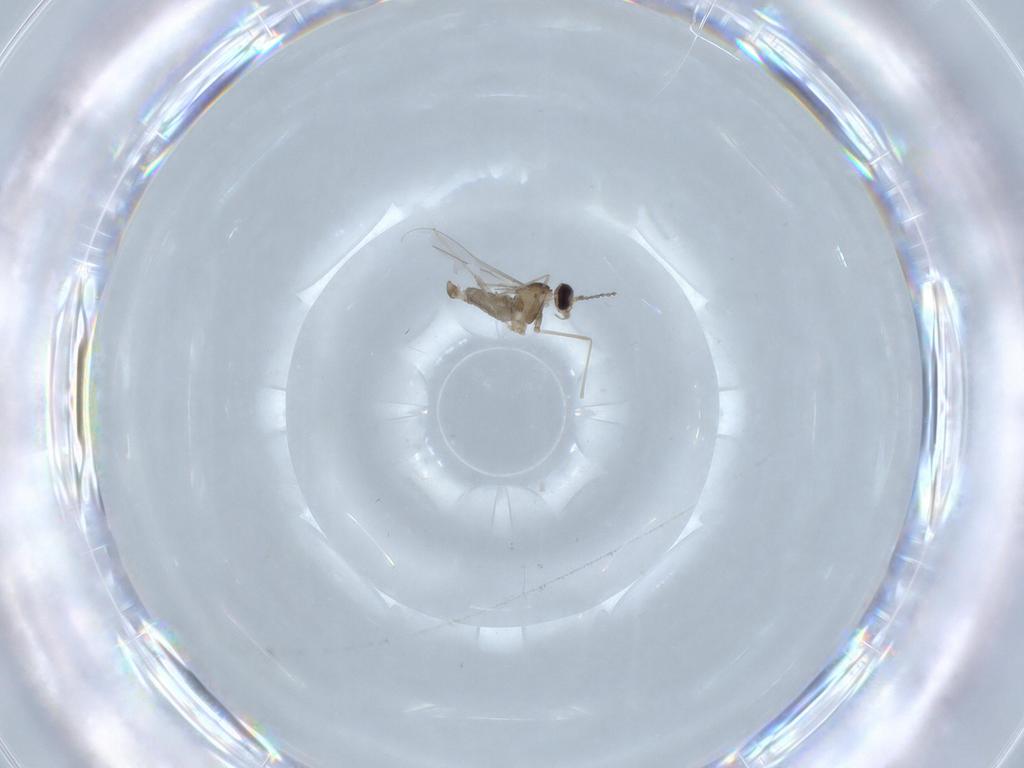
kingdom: Animalia
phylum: Arthropoda
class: Insecta
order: Diptera
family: Cecidomyiidae
